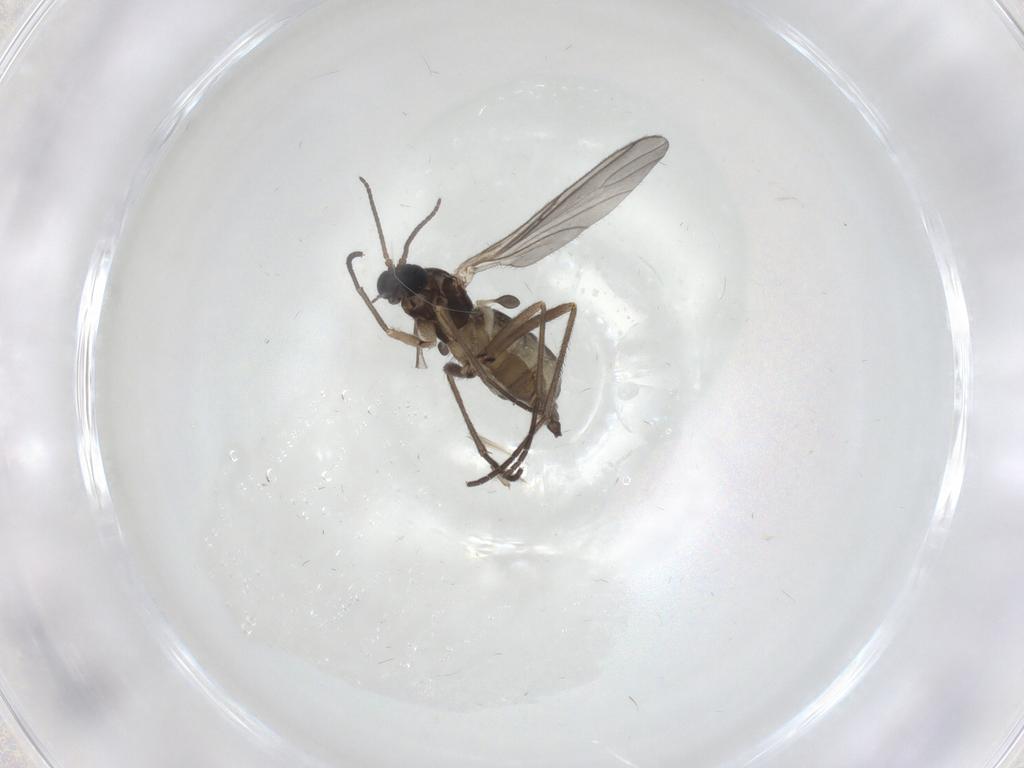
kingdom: Animalia
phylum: Arthropoda
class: Insecta
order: Diptera
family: Sciaridae
